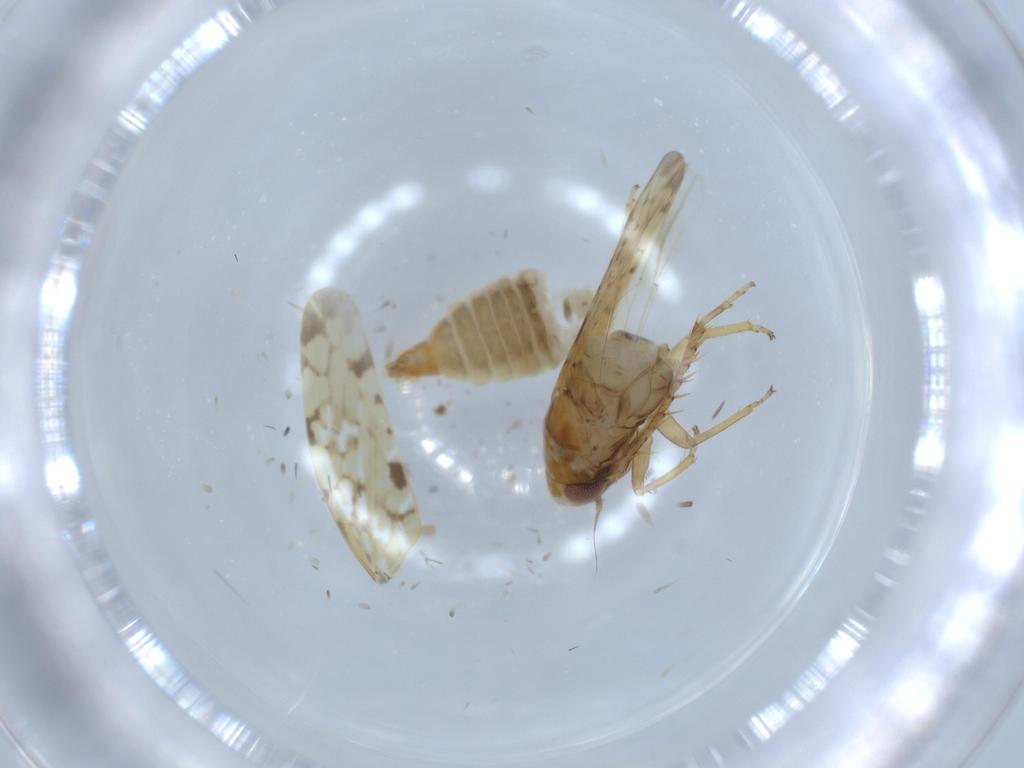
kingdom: Animalia
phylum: Arthropoda
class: Insecta
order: Hemiptera
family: Cicadellidae
